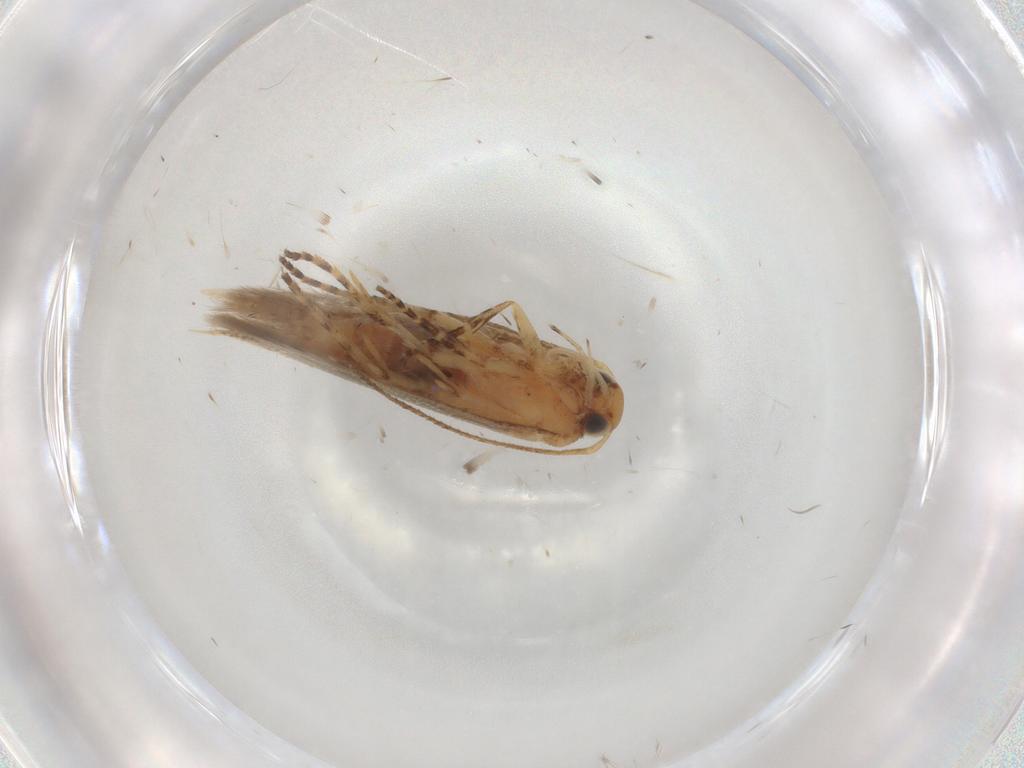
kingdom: Animalia
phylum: Arthropoda
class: Insecta
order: Lepidoptera
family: Gelechiidae
